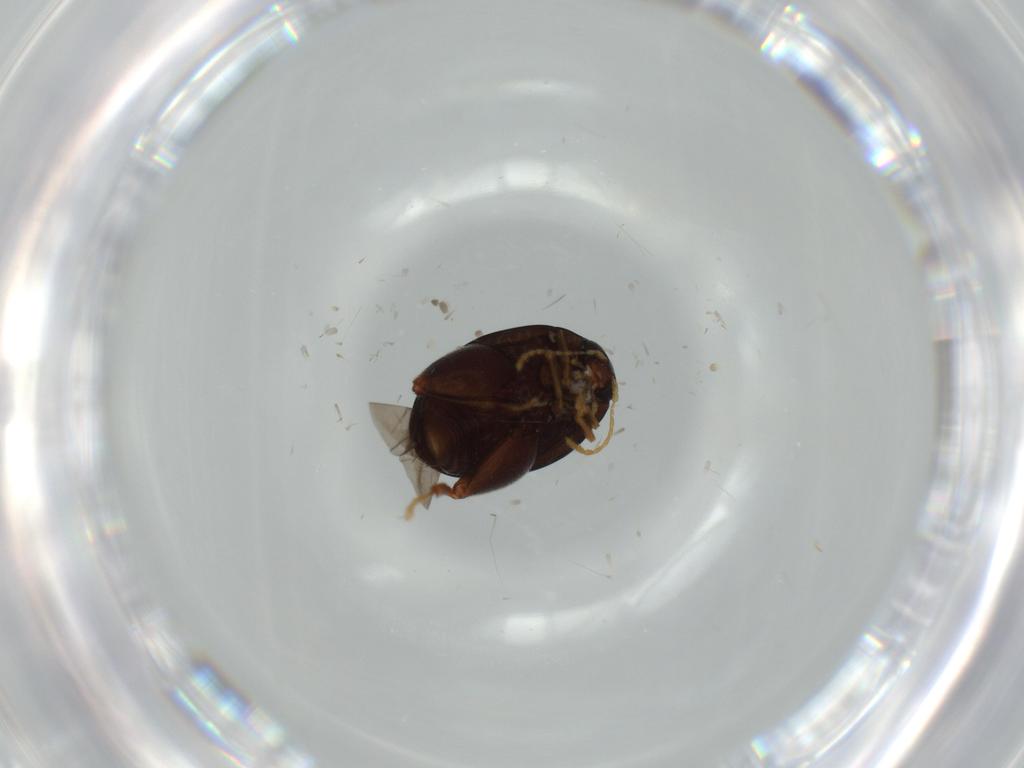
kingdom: Animalia
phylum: Arthropoda
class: Insecta
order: Coleoptera
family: Chrysomelidae
